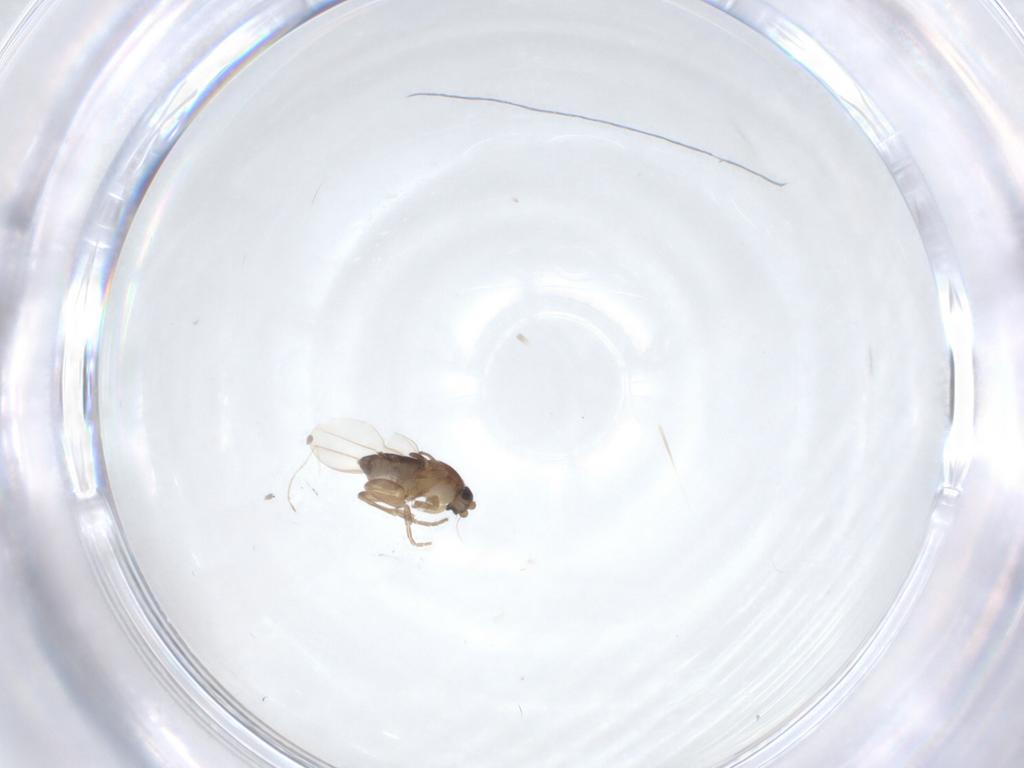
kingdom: Animalia
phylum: Arthropoda
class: Insecta
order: Diptera
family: Phoridae
